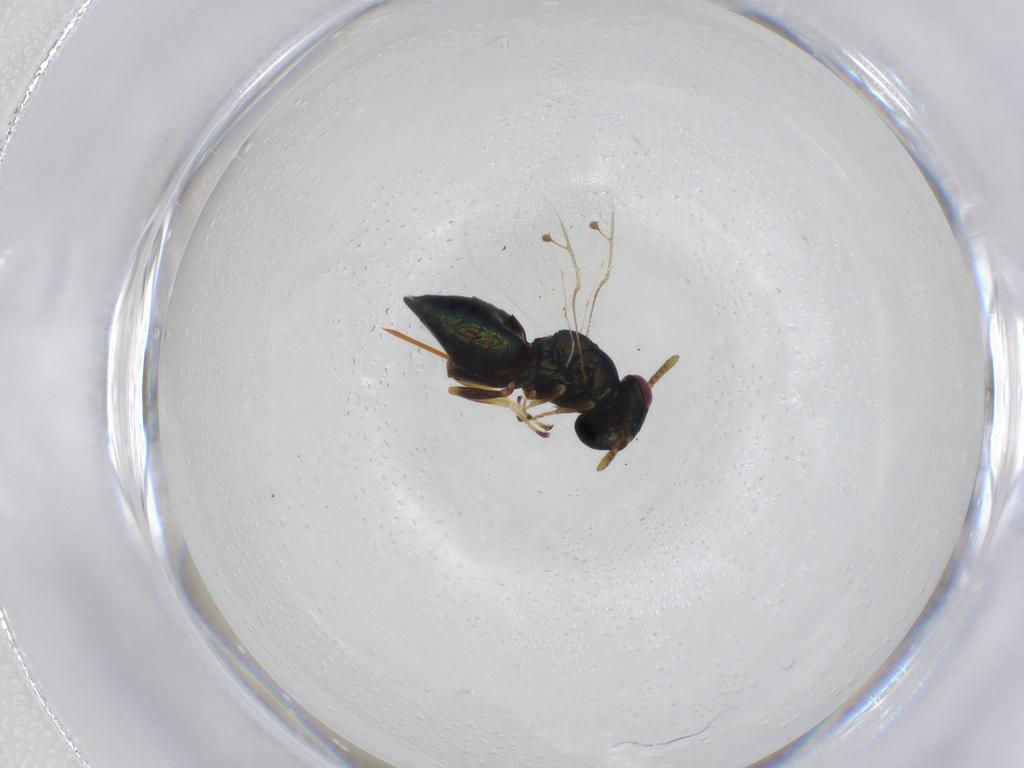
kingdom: Animalia
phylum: Arthropoda
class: Insecta
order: Hymenoptera
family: Pteromalidae
